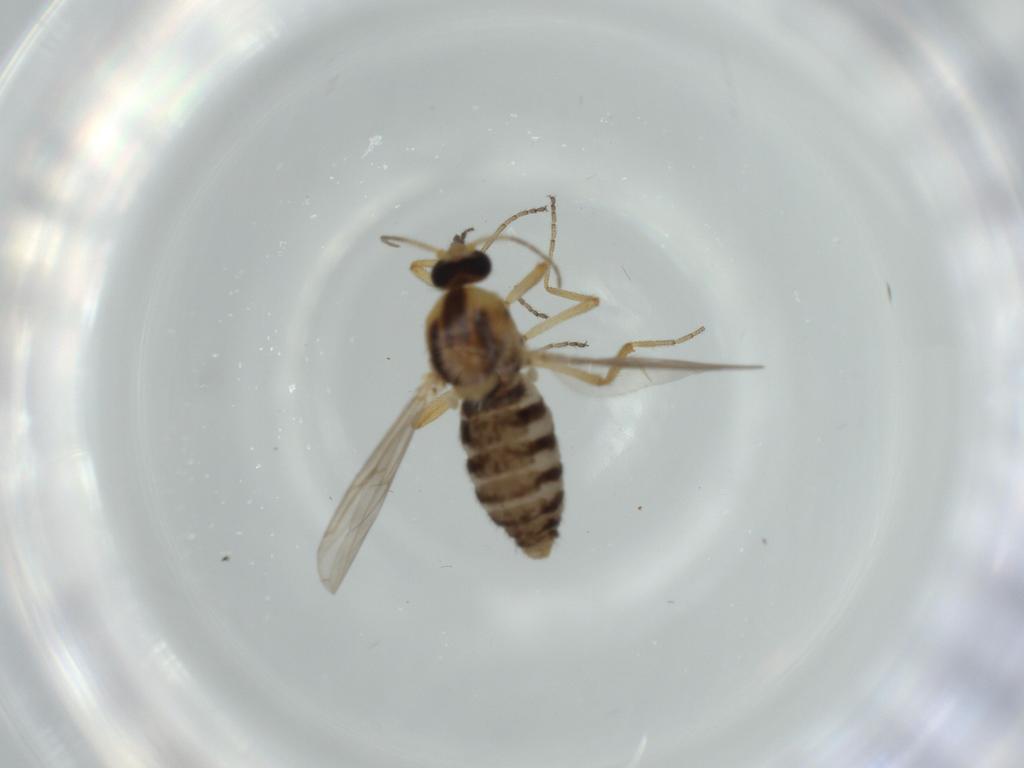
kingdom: Animalia
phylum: Arthropoda
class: Insecta
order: Diptera
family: Ceratopogonidae
